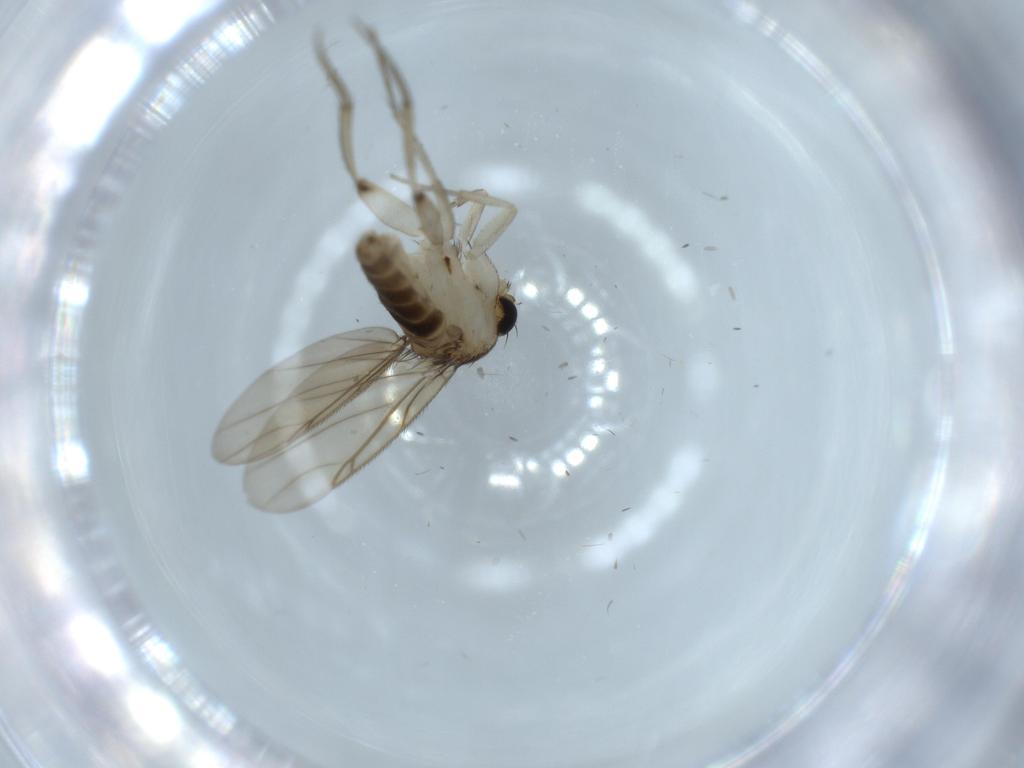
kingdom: Animalia
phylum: Arthropoda
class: Insecta
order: Diptera
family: Phoridae
